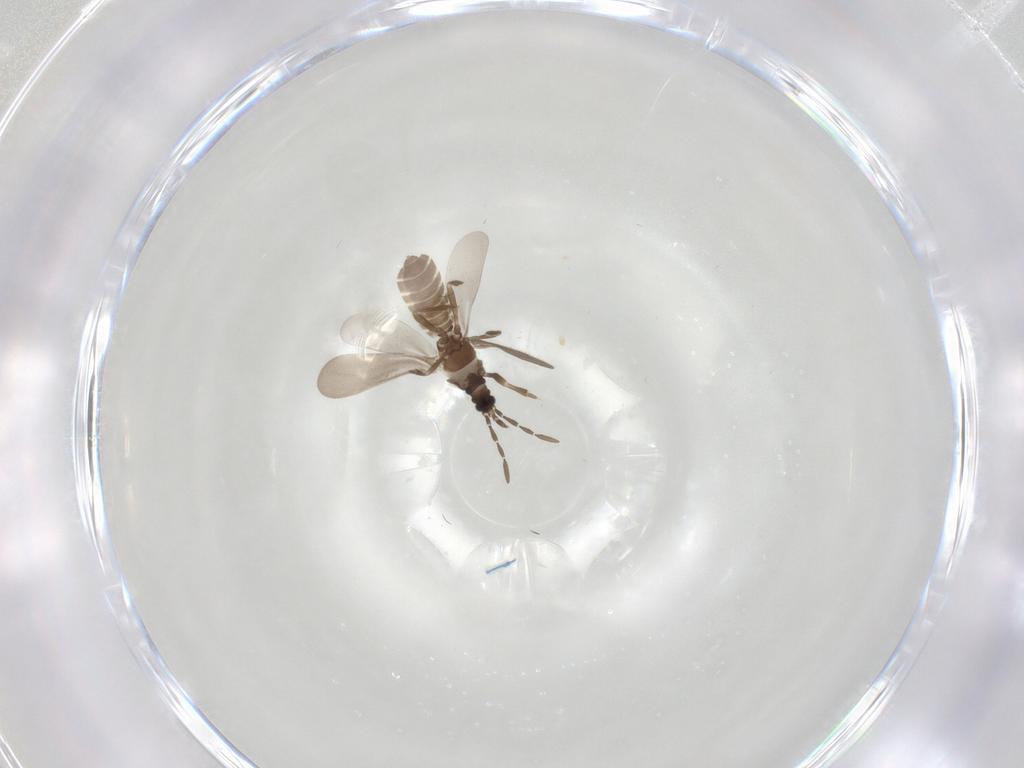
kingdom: Animalia
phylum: Arthropoda
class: Insecta
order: Hemiptera
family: Enicocephalidae
